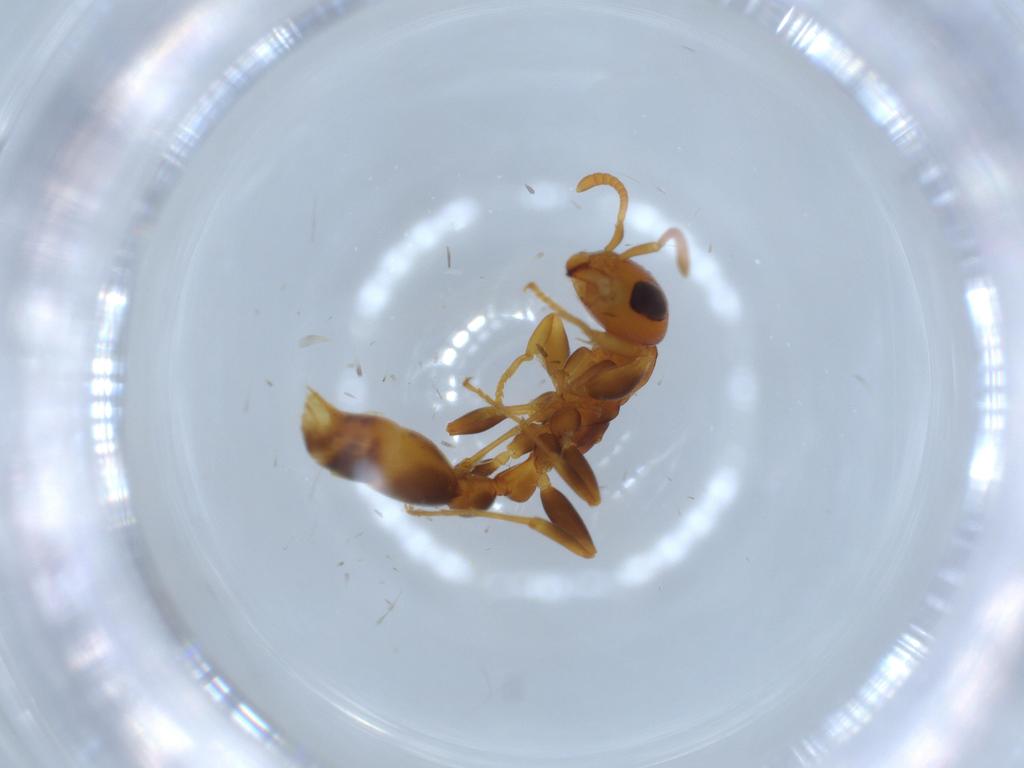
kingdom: Animalia
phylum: Arthropoda
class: Insecta
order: Hymenoptera
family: Formicidae
